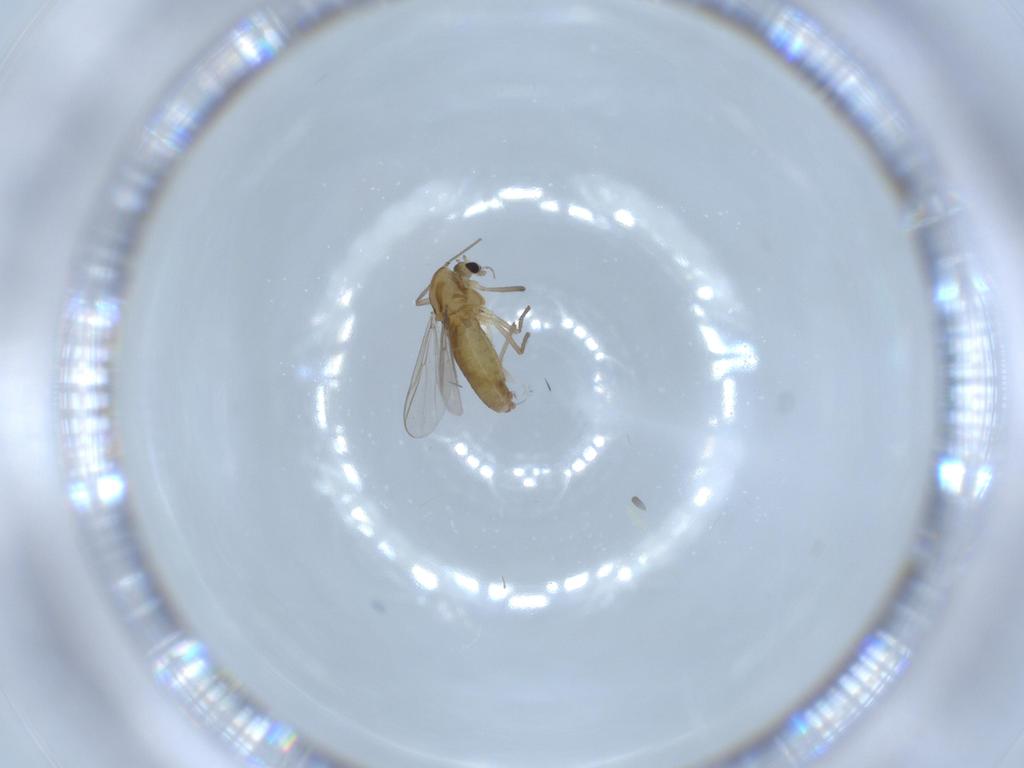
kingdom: Animalia
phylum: Arthropoda
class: Insecta
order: Diptera
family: Chironomidae
